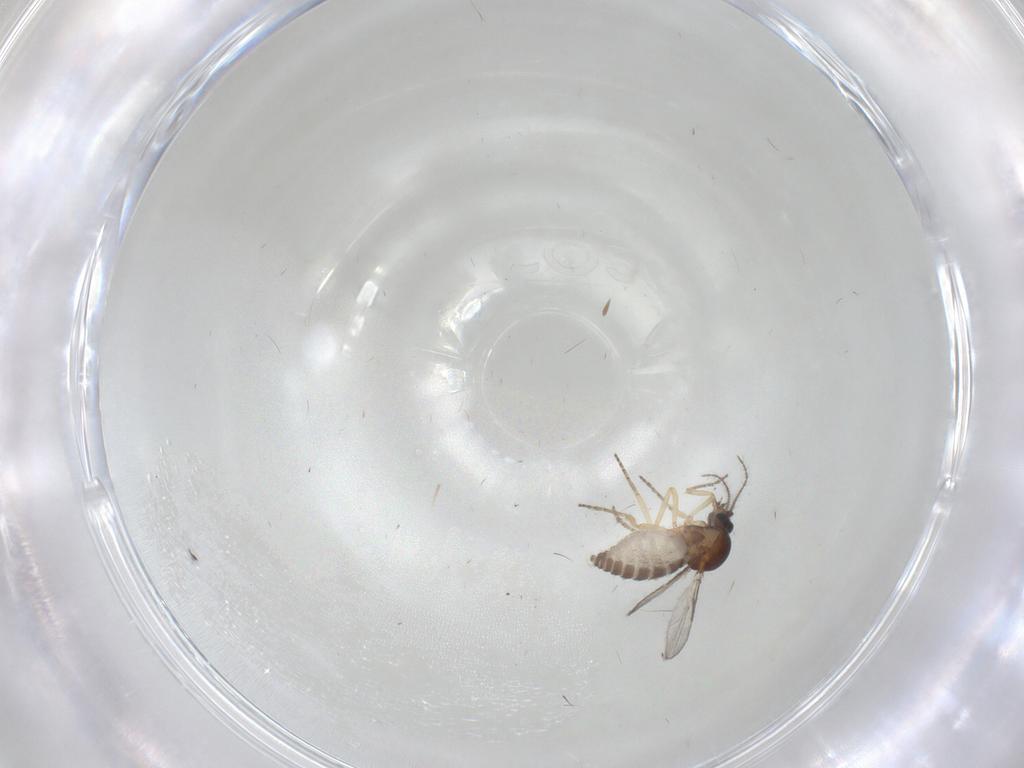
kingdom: Animalia
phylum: Arthropoda
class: Insecta
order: Diptera
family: Ceratopogonidae
